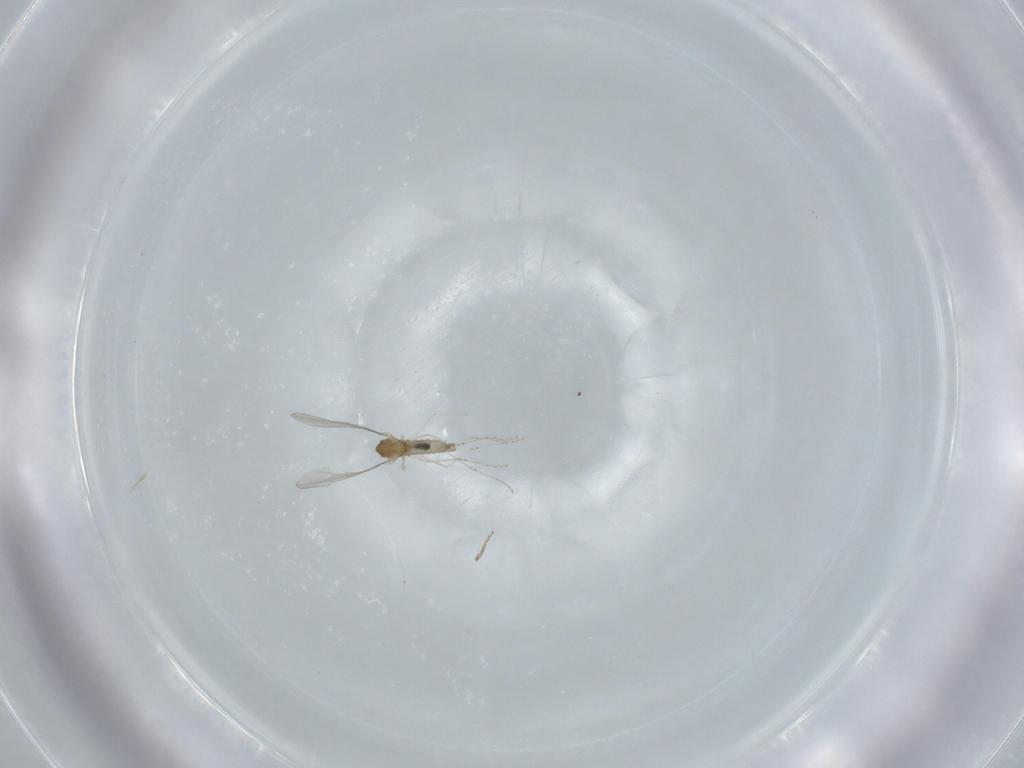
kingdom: Animalia
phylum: Arthropoda
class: Insecta
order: Diptera
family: Cecidomyiidae
